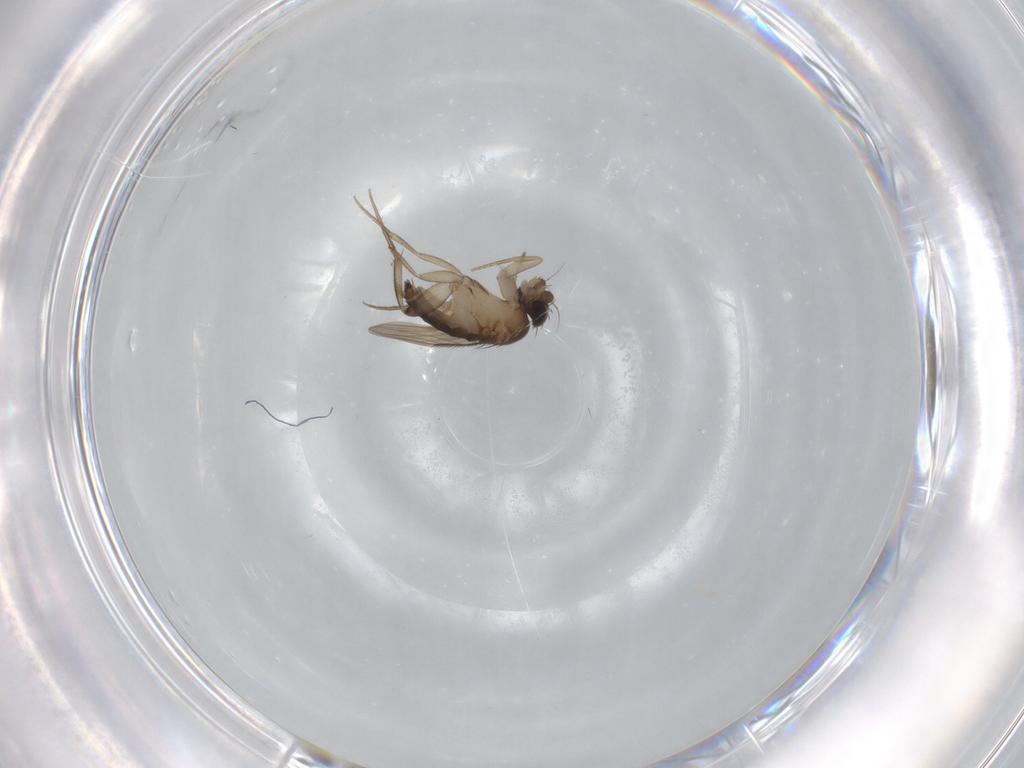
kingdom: Animalia
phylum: Arthropoda
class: Insecta
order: Diptera
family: Phoridae
